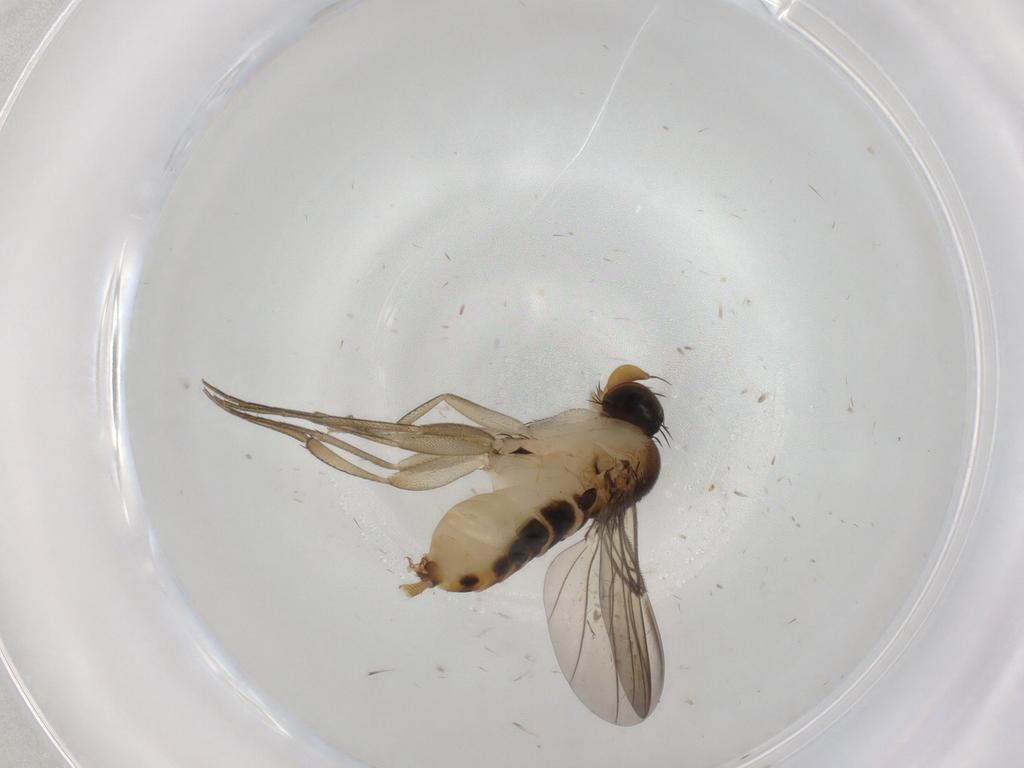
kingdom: Animalia
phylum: Arthropoda
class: Insecta
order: Diptera
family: Phoridae
